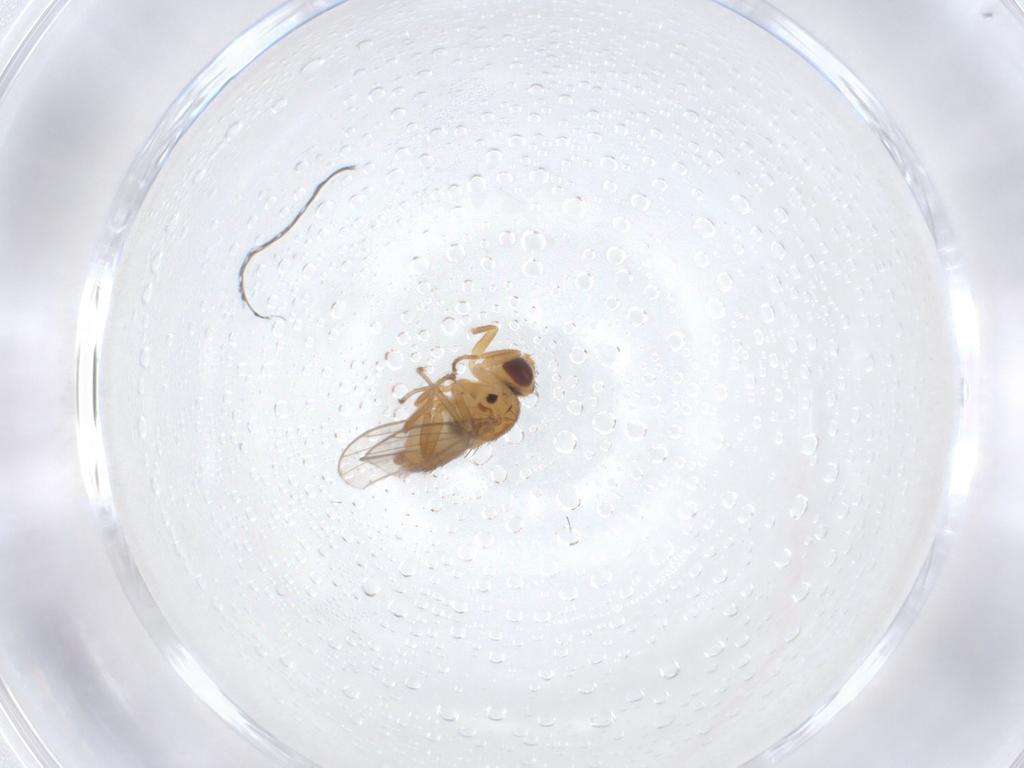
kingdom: Animalia
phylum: Arthropoda
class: Insecta
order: Diptera
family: Chloropidae
